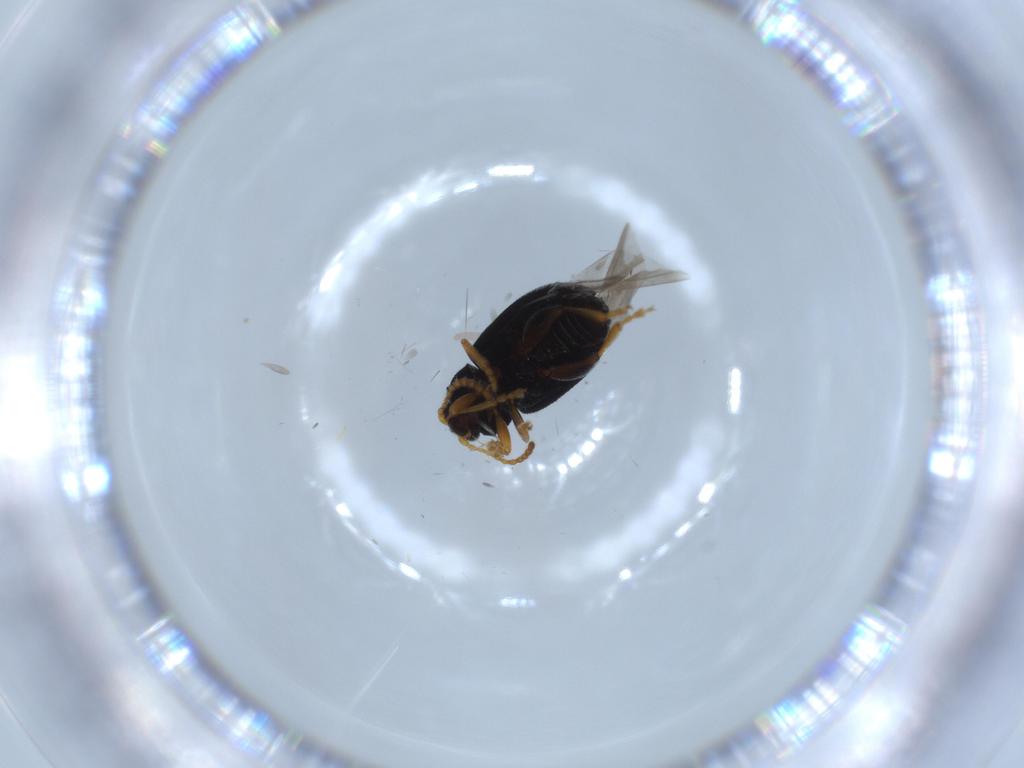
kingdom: Animalia
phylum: Arthropoda
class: Insecta
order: Coleoptera
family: Chrysomelidae
